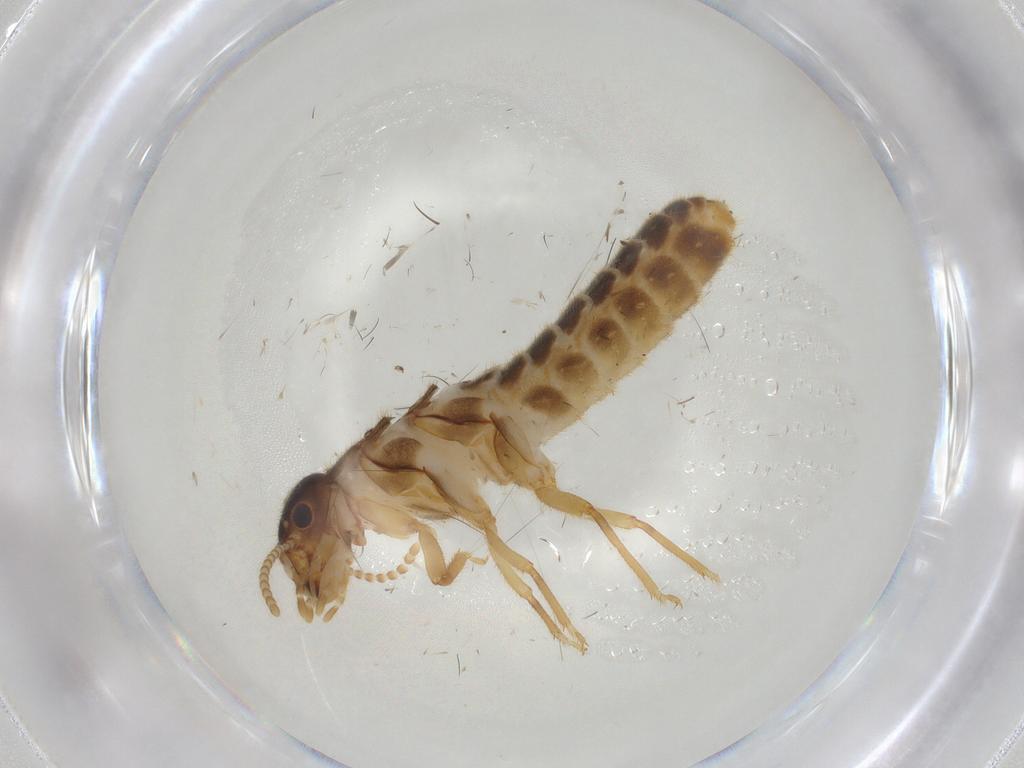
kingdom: Animalia
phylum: Arthropoda
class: Insecta
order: Blattodea
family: Termitidae
